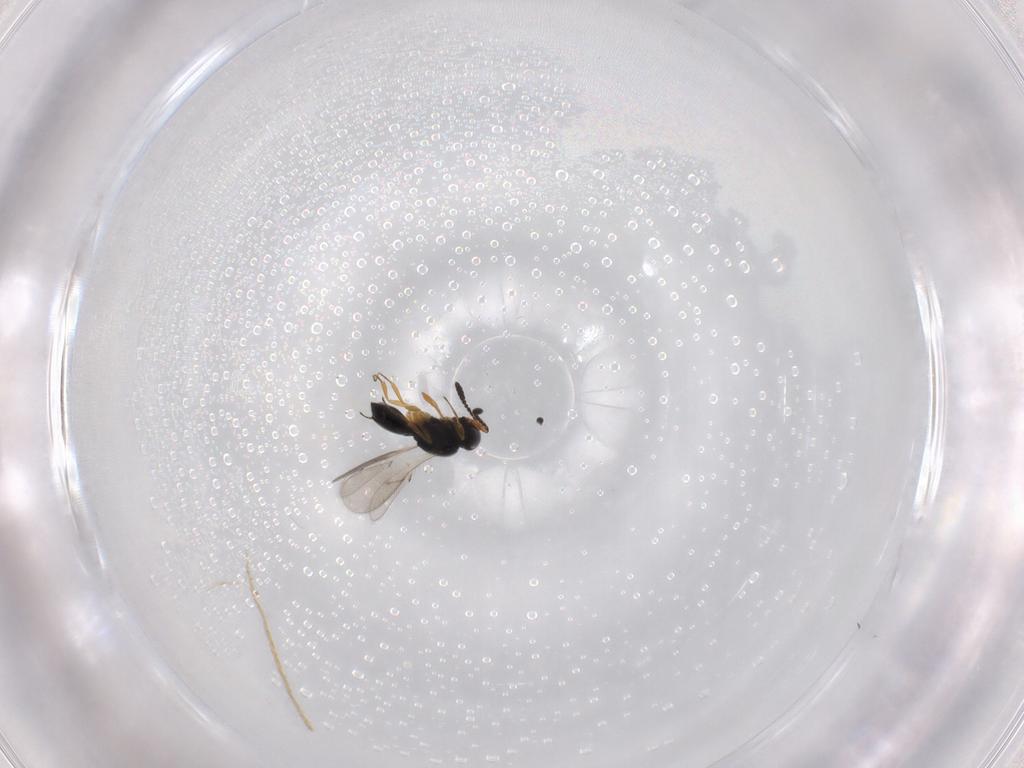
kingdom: Animalia
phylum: Arthropoda
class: Insecta
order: Hymenoptera
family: Scelionidae
